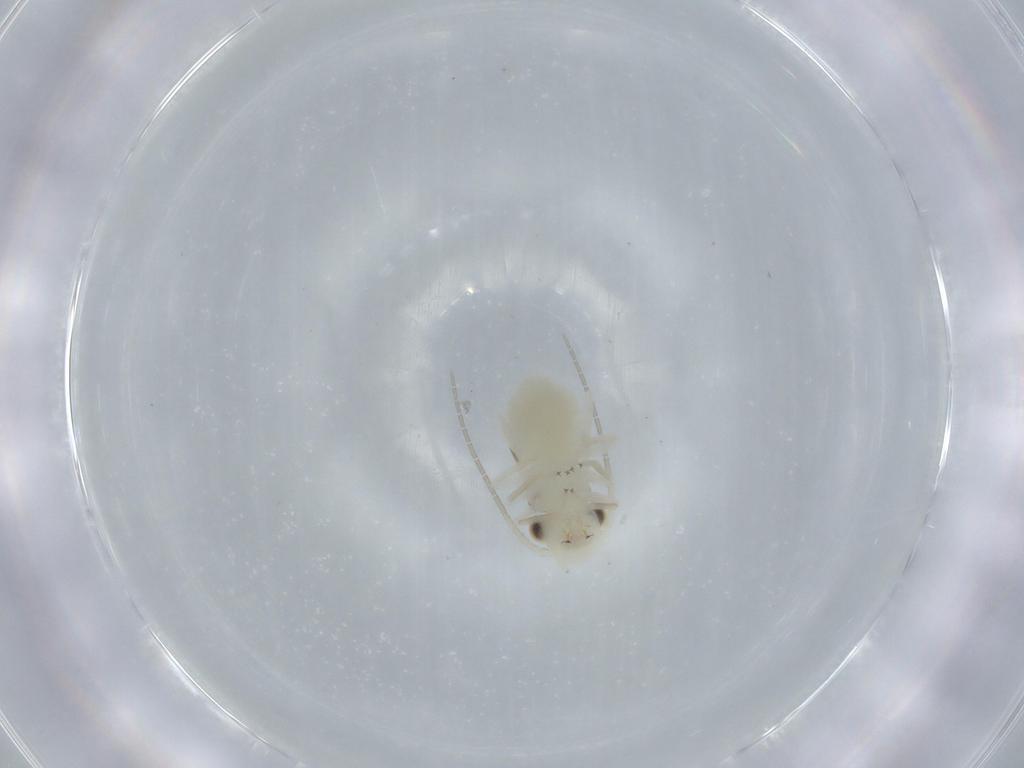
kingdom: Animalia
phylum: Arthropoda
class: Insecta
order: Psocodea
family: Caeciliusidae
